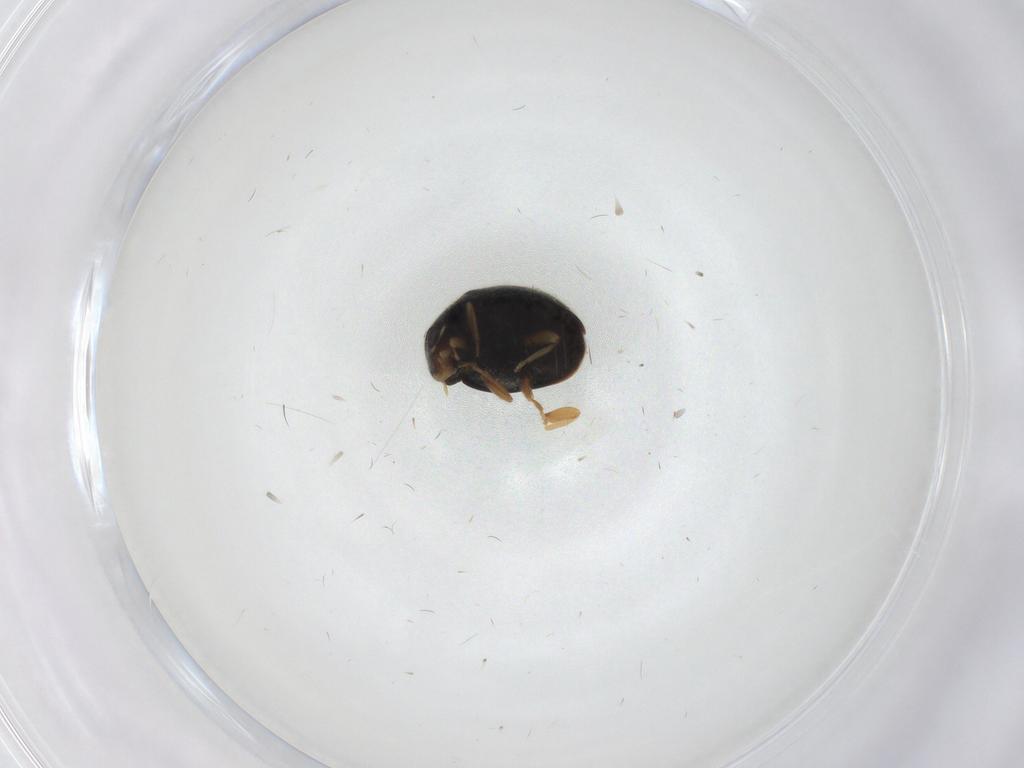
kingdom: Animalia
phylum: Arthropoda
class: Insecta
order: Coleoptera
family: Coccinellidae
